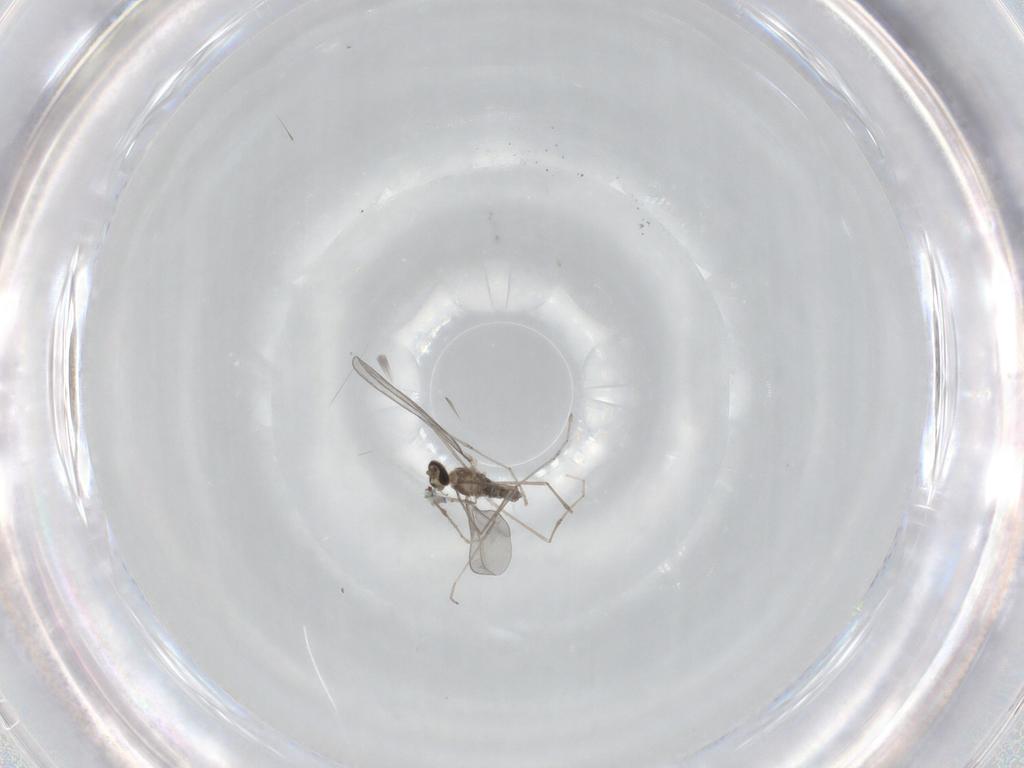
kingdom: Animalia
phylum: Arthropoda
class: Insecta
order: Diptera
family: Cecidomyiidae
